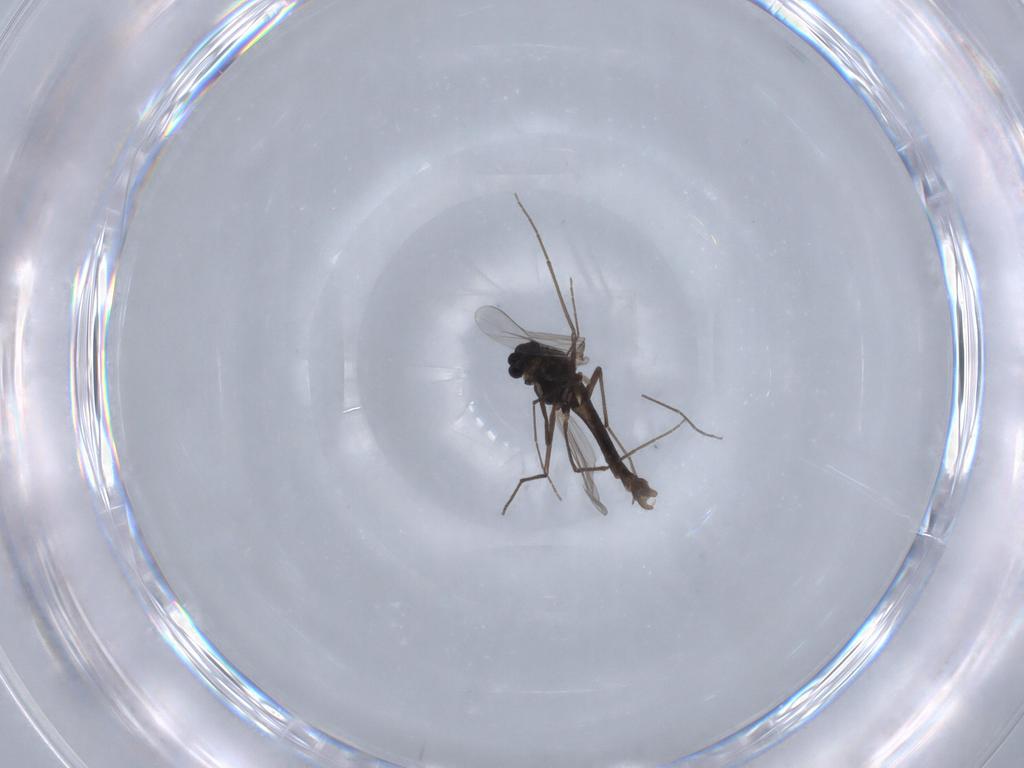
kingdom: Animalia
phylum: Arthropoda
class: Insecta
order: Diptera
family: Chironomidae
